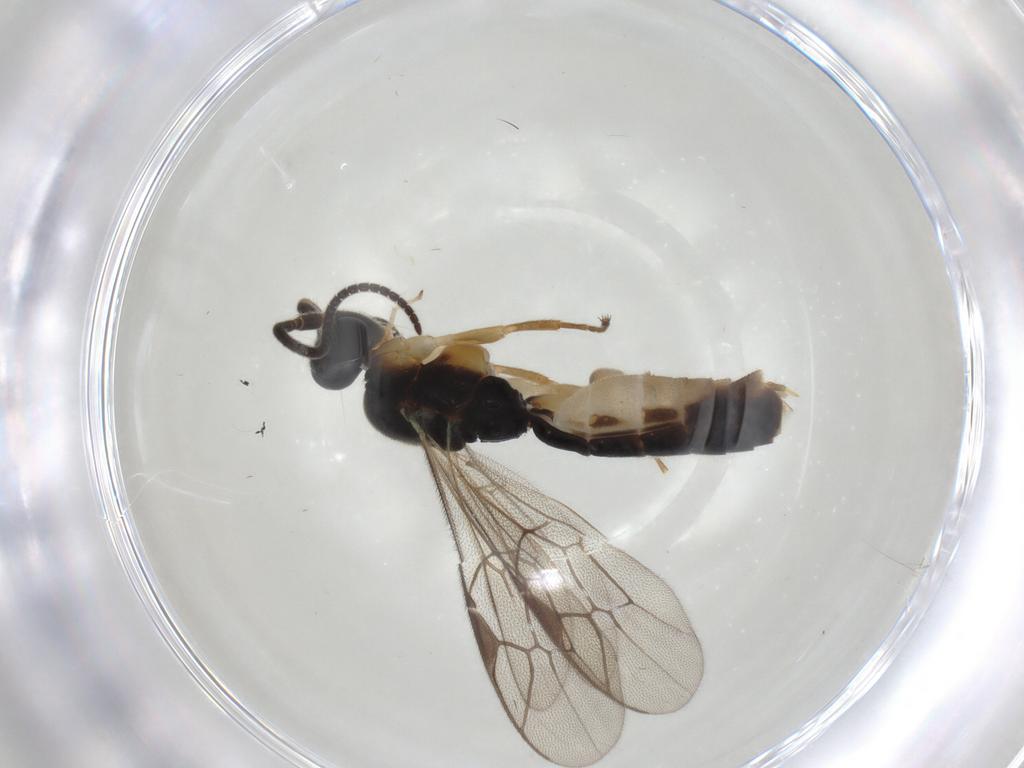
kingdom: Animalia
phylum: Arthropoda
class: Insecta
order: Hymenoptera
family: Ichneumonidae
